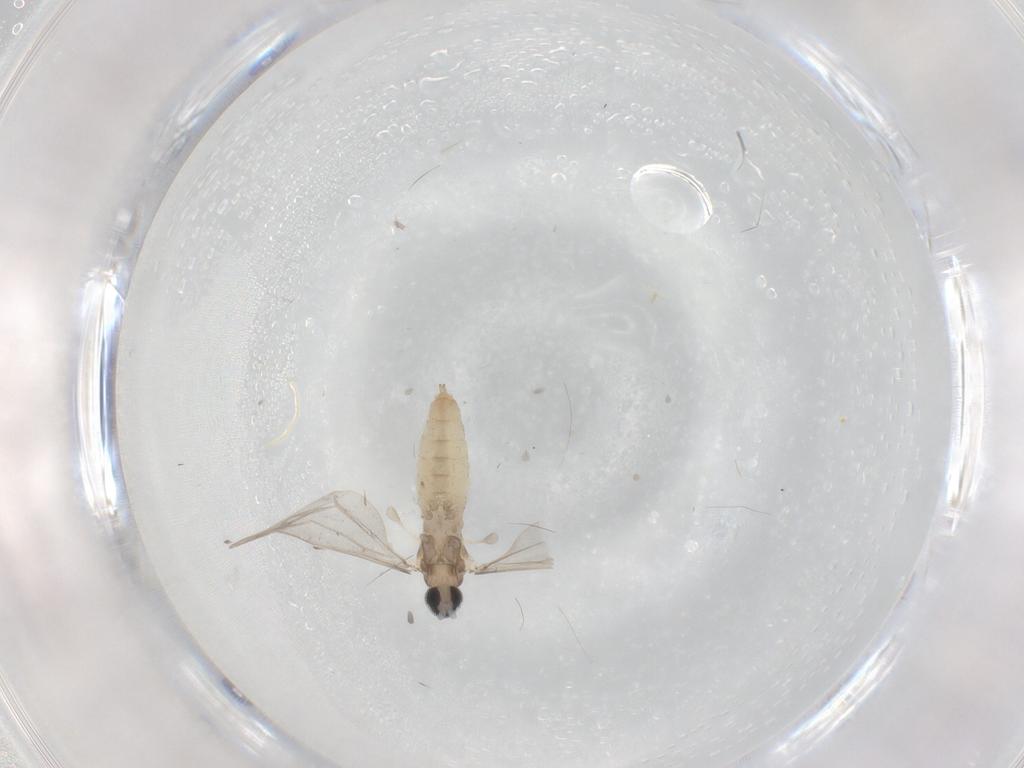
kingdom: Animalia
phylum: Arthropoda
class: Insecta
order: Diptera
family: Cecidomyiidae
